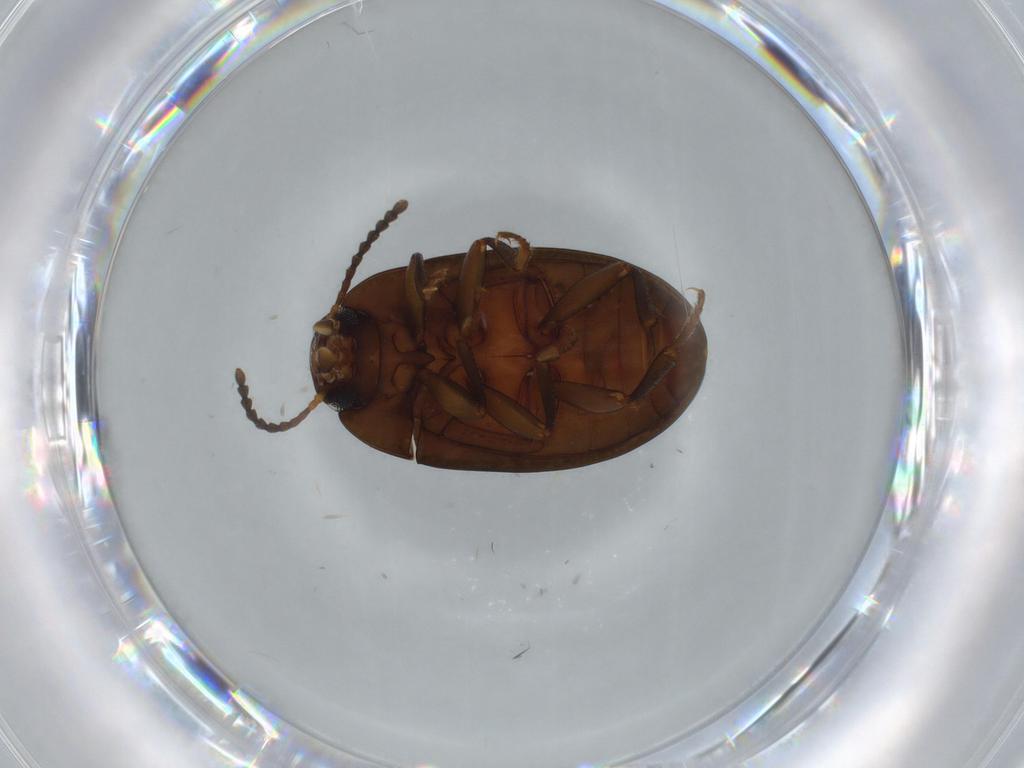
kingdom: Animalia
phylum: Arthropoda
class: Insecta
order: Coleoptera
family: Tenebrionidae
